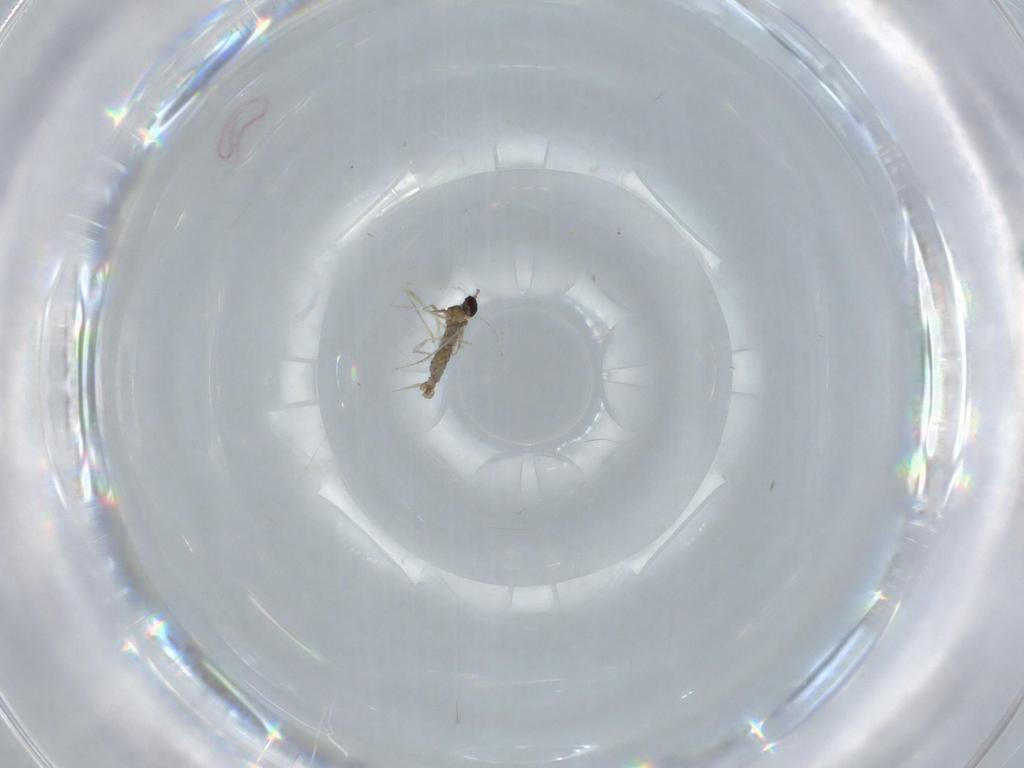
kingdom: Animalia
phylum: Arthropoda
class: Insecta
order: Diptera
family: Cecidomyiidae
